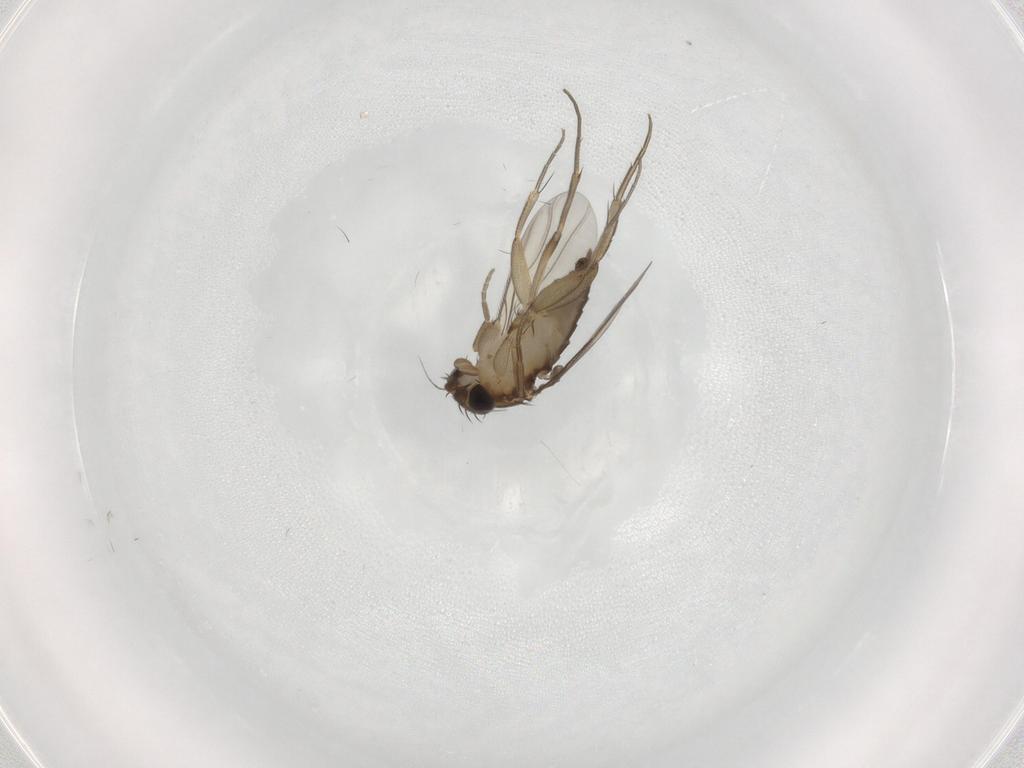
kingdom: Animalia
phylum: Arthropoda
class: Insecta
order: Diptera
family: Phoridae
